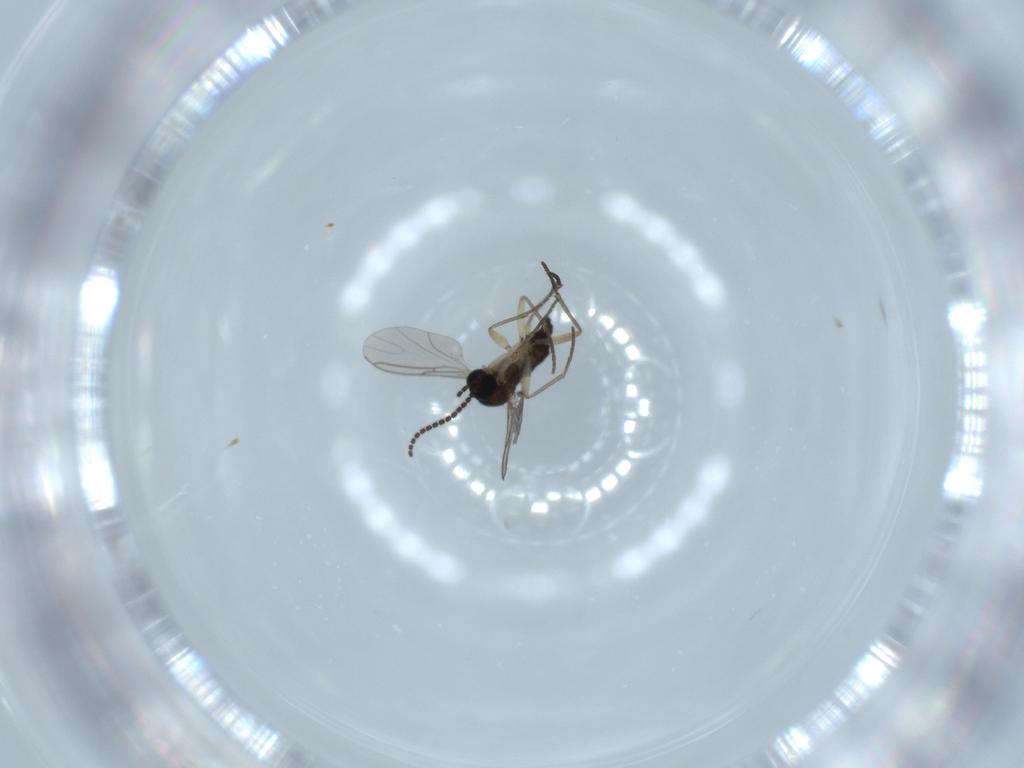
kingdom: Animalia
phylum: Arthropoda
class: Insecta
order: Diptera
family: Sciaridae
